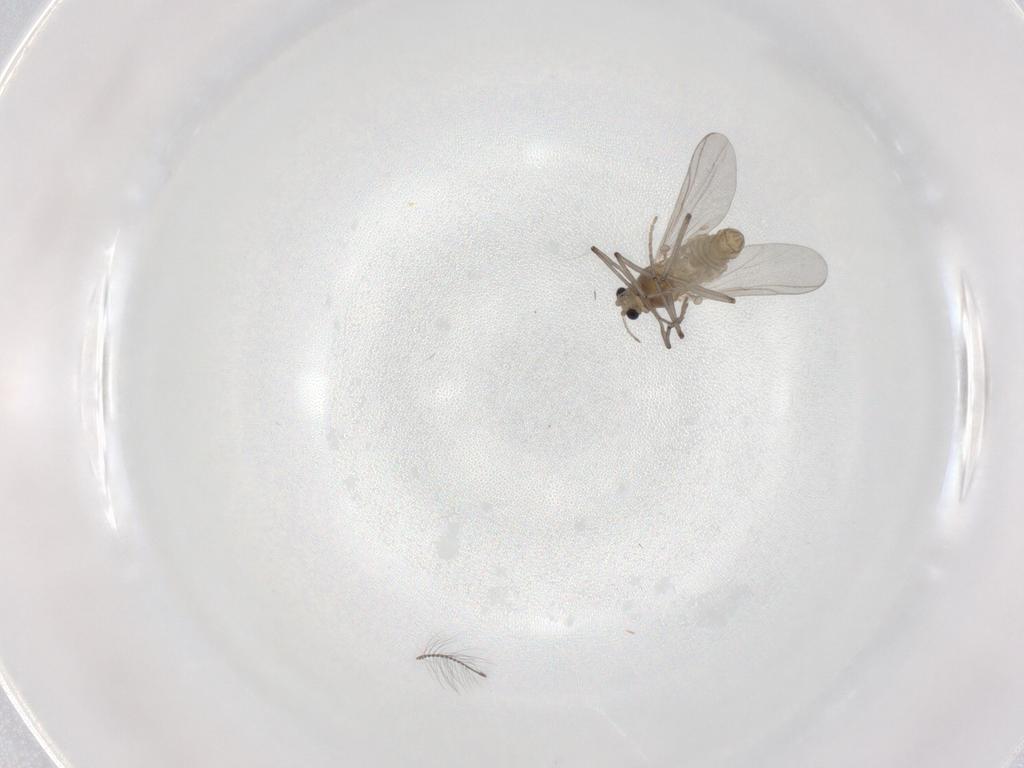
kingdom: Animalia
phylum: Arthropoda
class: Insecta
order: Diptera
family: Chironomidae
